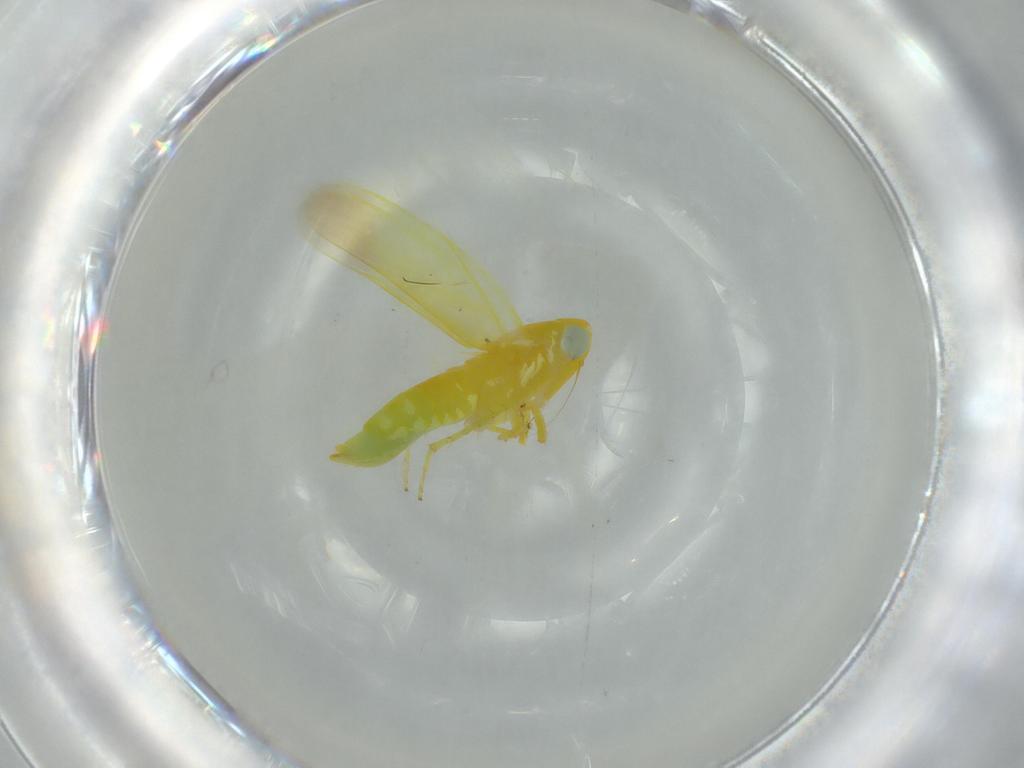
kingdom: Animalia
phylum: Arthropoda
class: Insecta
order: Hemiptera
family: Cicadellidae
